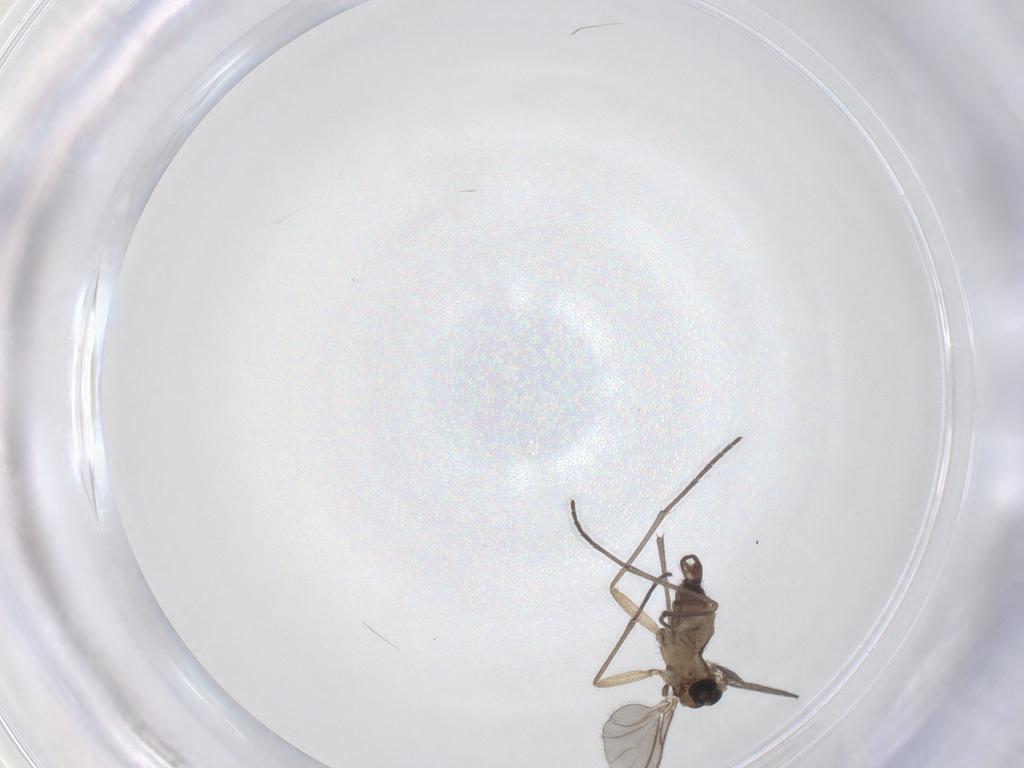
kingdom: Animalia
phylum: Arthropoda
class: Insecta
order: Diptera
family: Sciaridae
